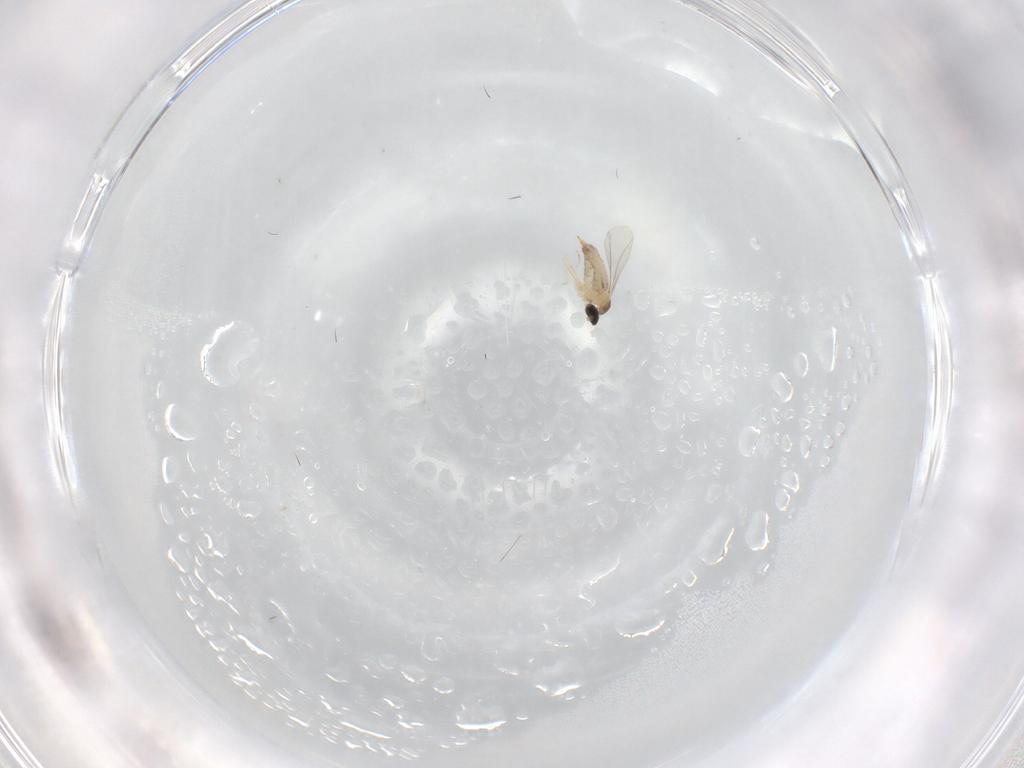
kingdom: Animalia
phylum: Arthropoda
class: Insecta
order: Diptera
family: Cecidomyiidae
